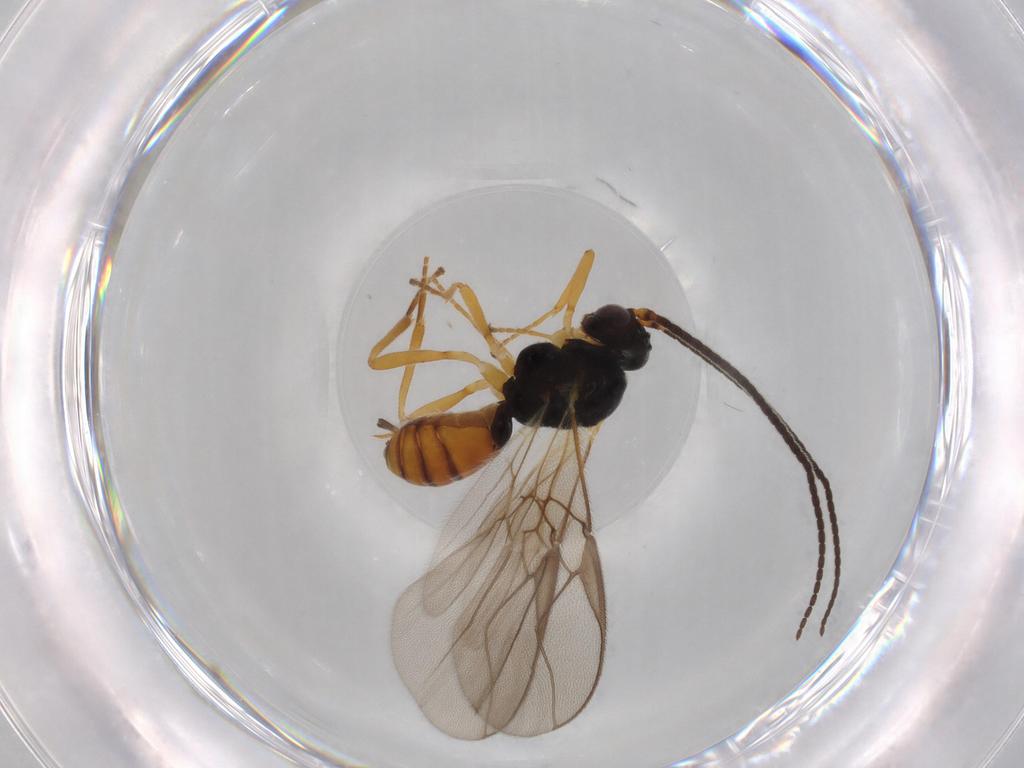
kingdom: Animalia
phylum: Arthropoda
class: Insecta
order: Hymenoptera
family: Braconidae
